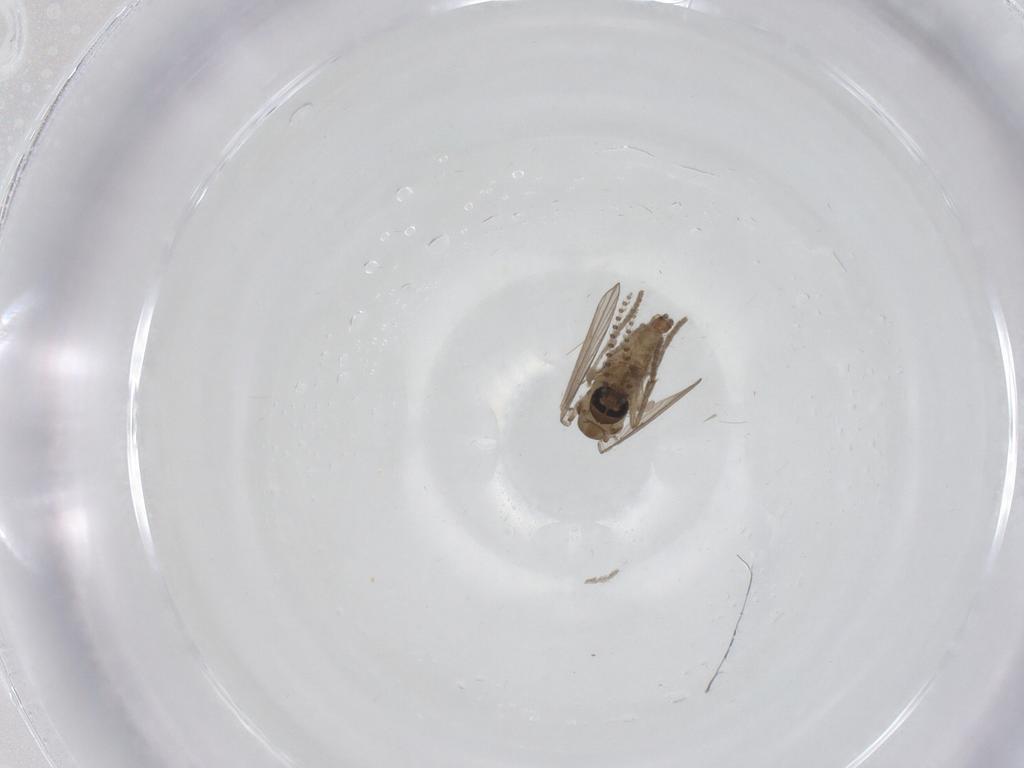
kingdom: Animalia
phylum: Arthropoda
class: Insecta
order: Diptera
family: Psychodidae
